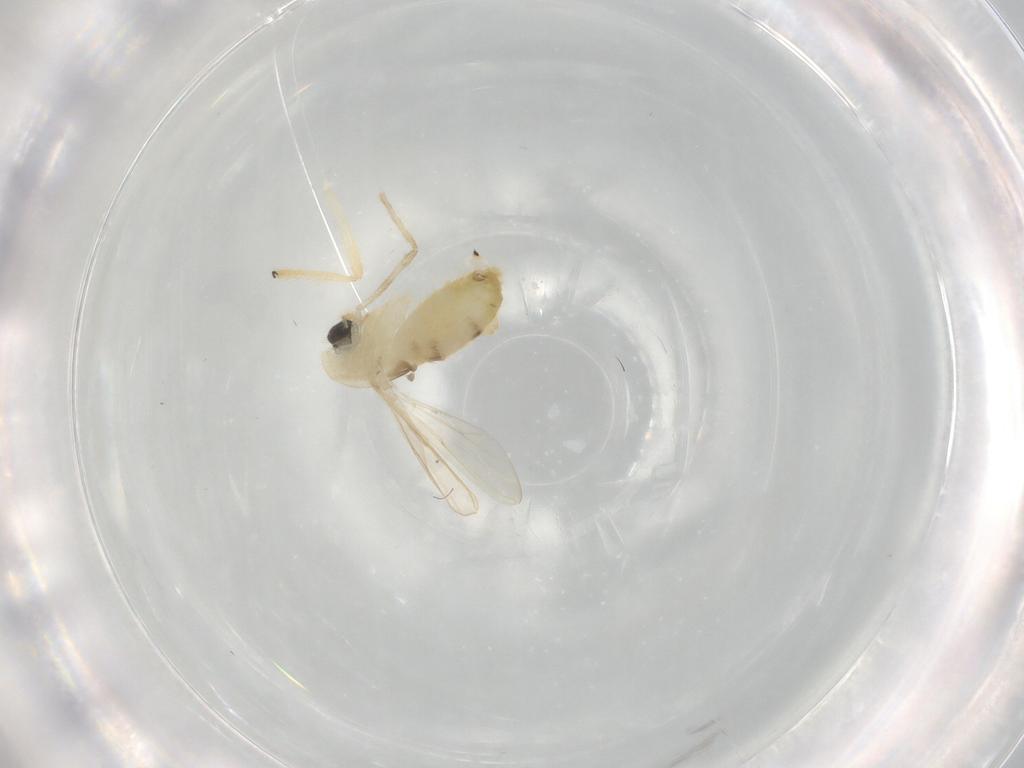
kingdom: Animalia
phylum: Arthropoda
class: Insecta
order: Diptera
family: Chironomidae
